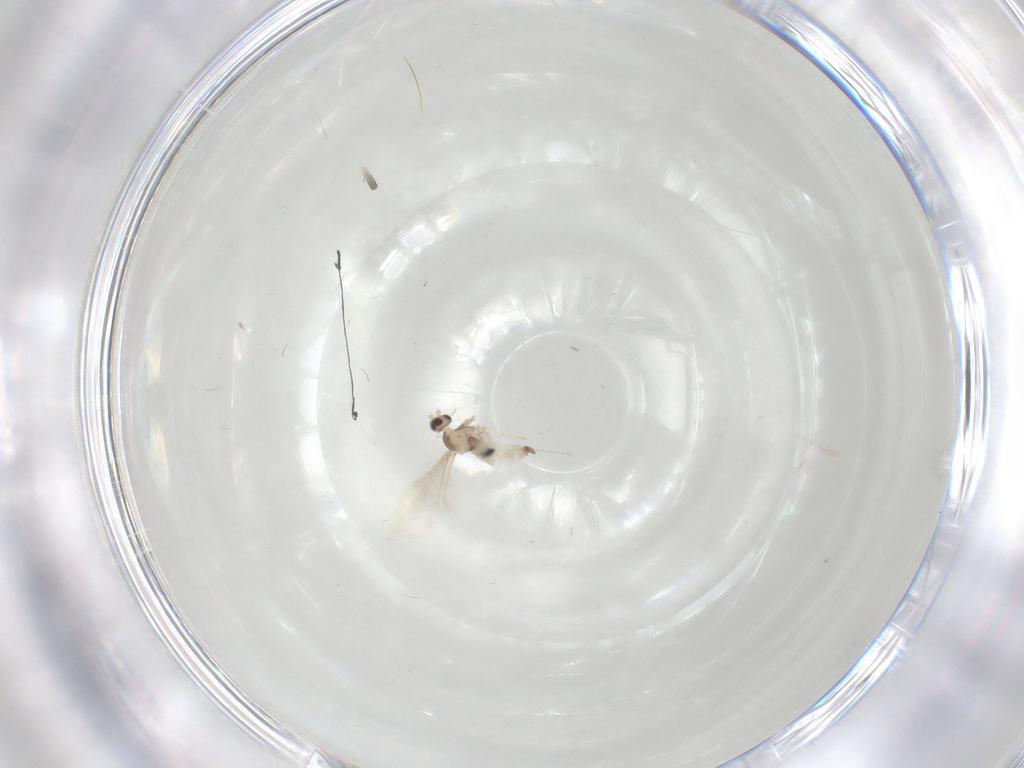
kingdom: Animalia
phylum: Arthropoda
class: Insecta
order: Diptera
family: Cecidomyiidae
